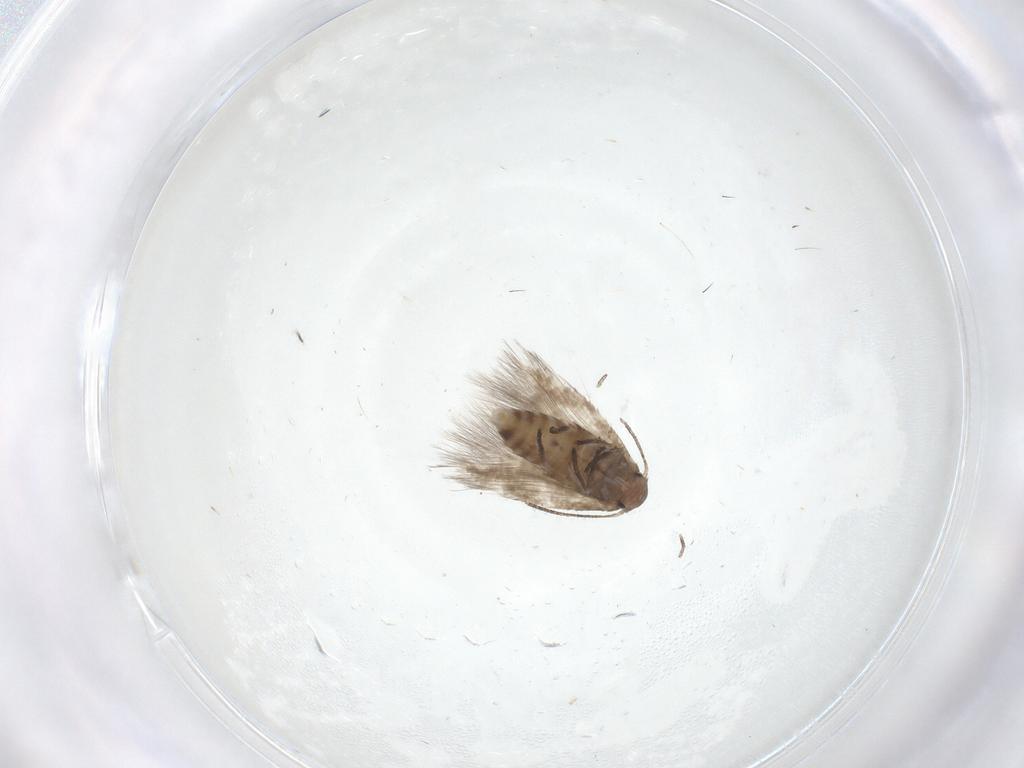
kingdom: Animalia
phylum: Arthropoda
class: Insecta
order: Lepidoptera
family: Lyonetiidae
